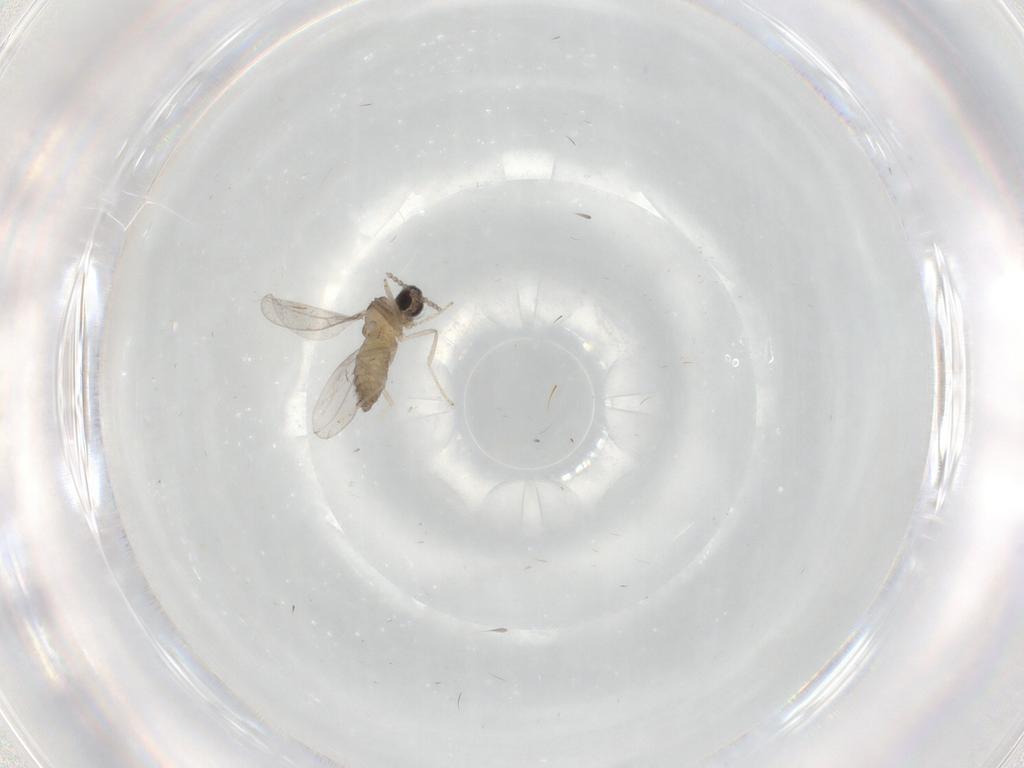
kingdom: Animalia
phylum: Arthropoda
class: Insecta
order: Diptera
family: Cecidomyiidae
